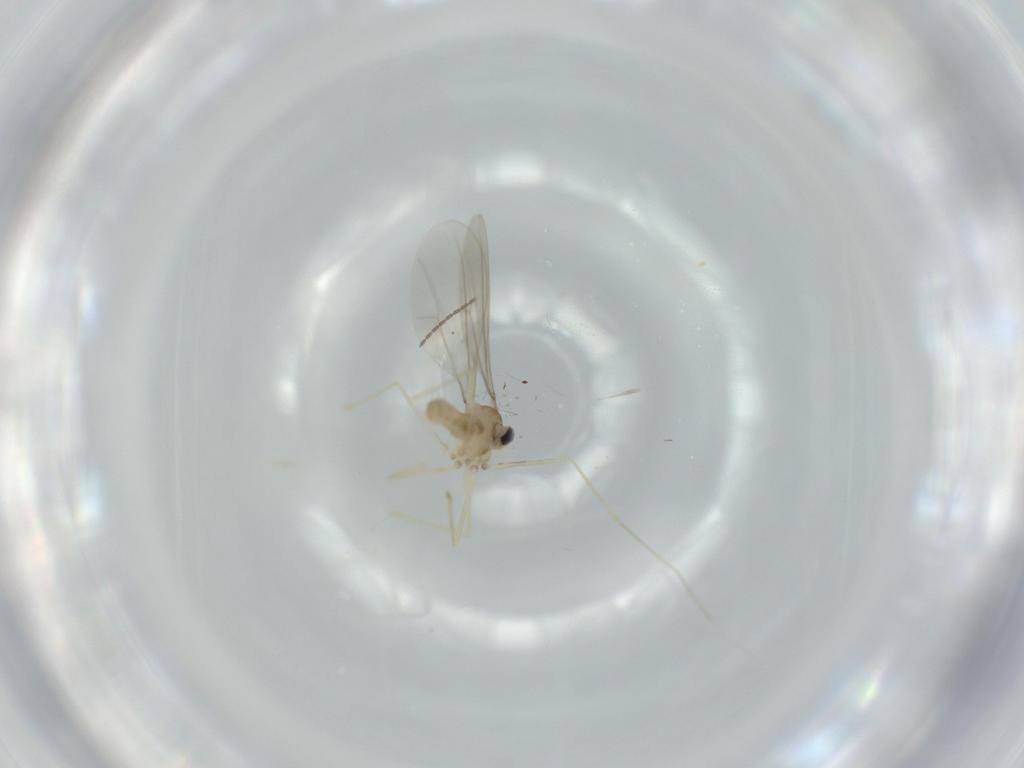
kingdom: Animalia
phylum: Arthropoda
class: Insecta
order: Diptera
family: Cecidomyiidae
